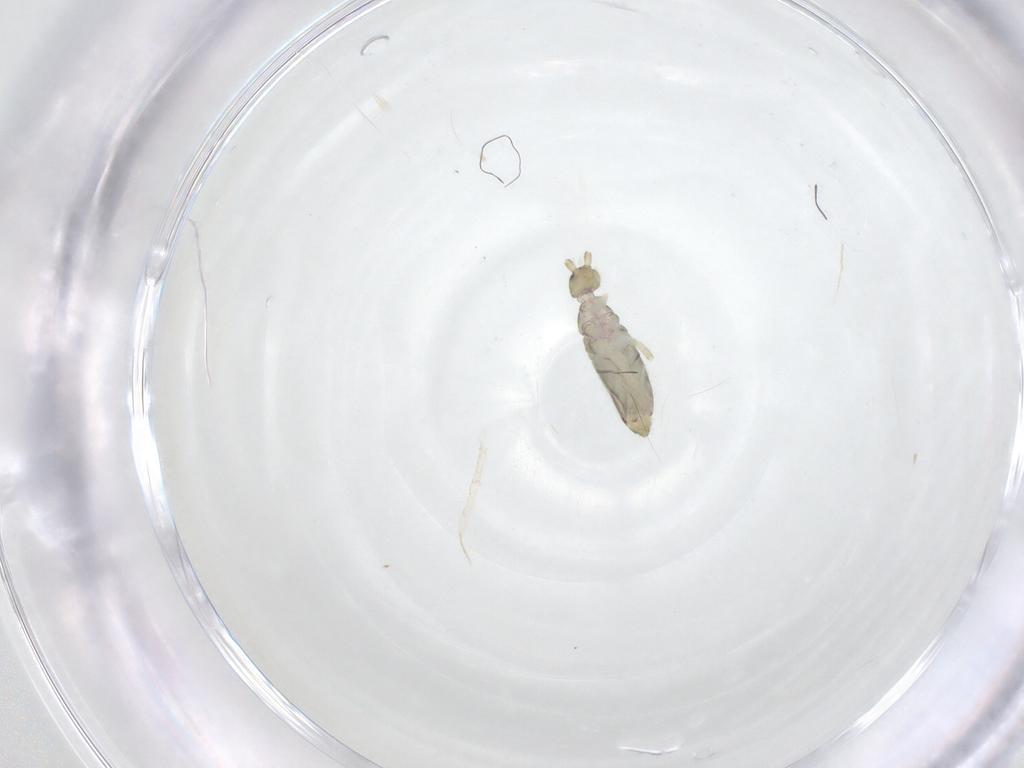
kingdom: Animalia
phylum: Arthropoda
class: Collembola
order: Entomobryomorpha
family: Entomobryidae
